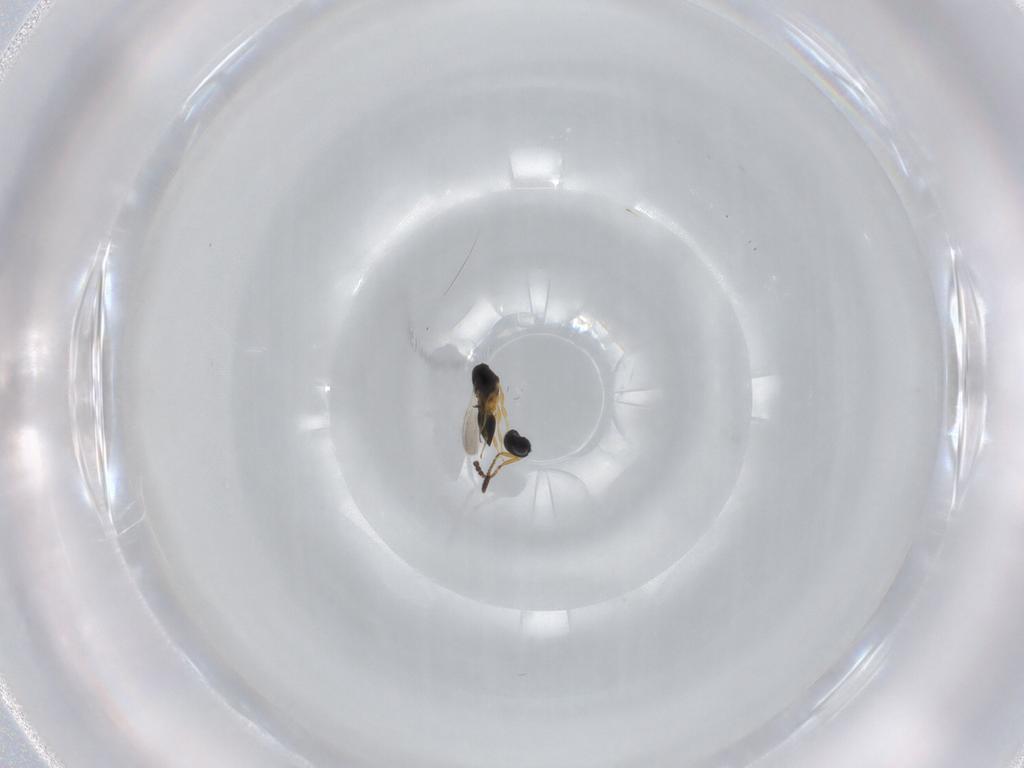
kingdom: Animalia
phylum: Arthropoda
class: Insecta
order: Hymenoptera
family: Scelionidae
